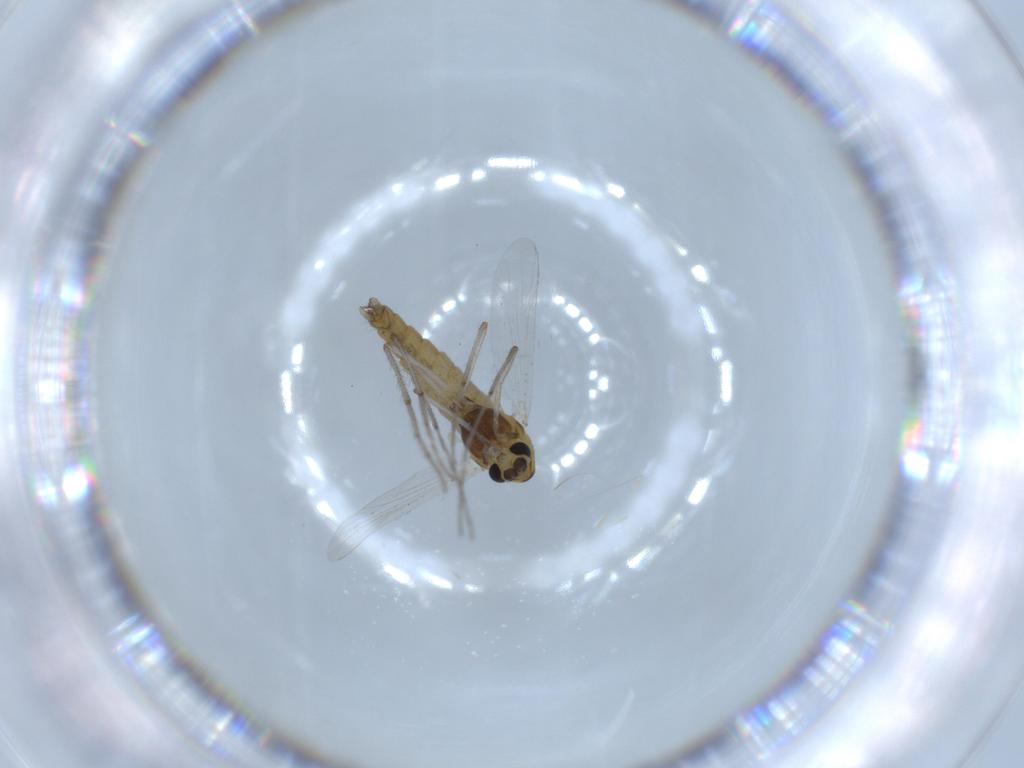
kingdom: Animalia
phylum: Arthropoda
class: Insecta
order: Diptera
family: Chironomidae
